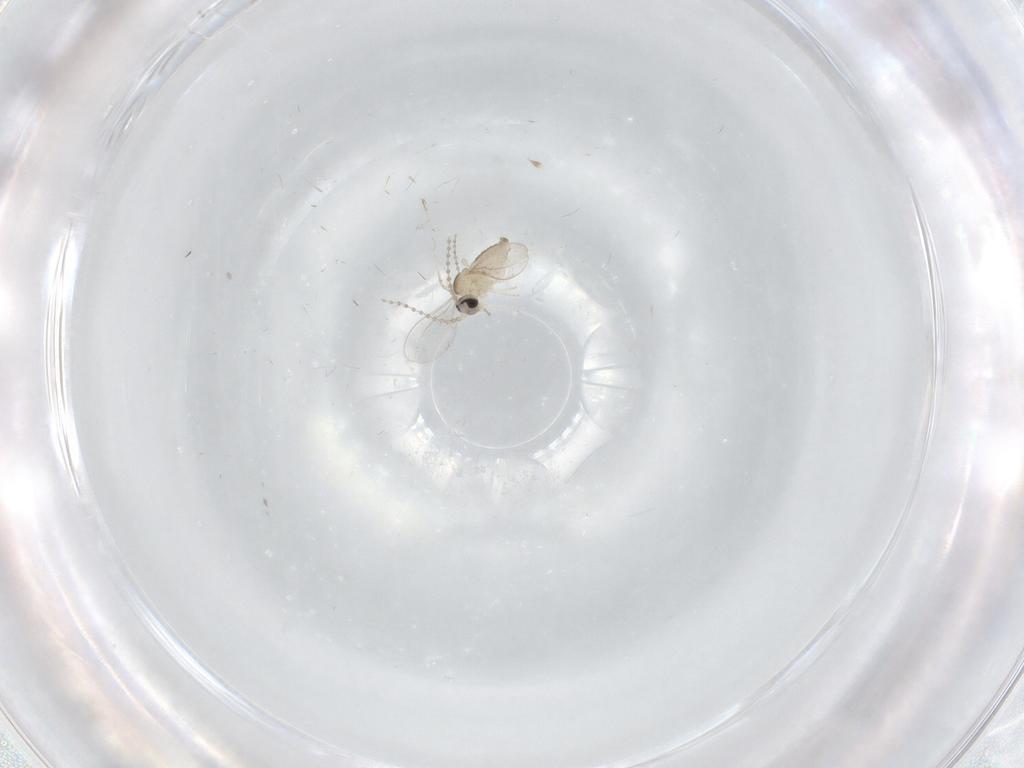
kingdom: Animalia
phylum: Arthropoda
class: Insecta
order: Diptera
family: Cecidomyiidae
